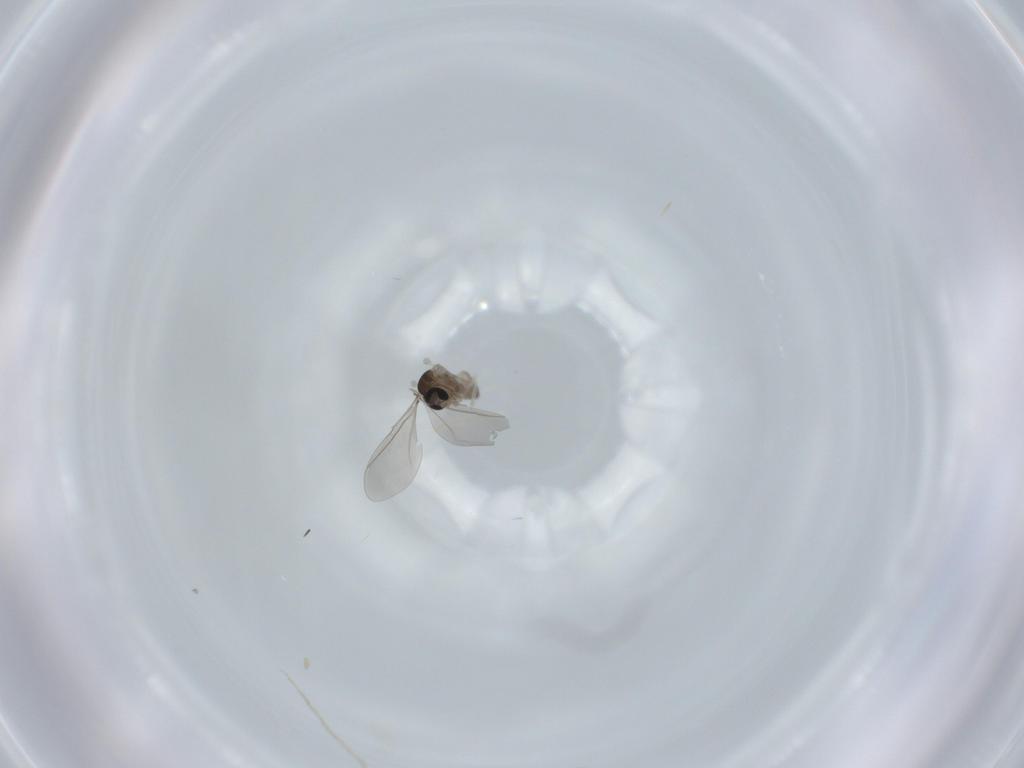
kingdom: Animalia
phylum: Arthropoda
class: Insecta
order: Diptera
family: Cecidomyiidae
